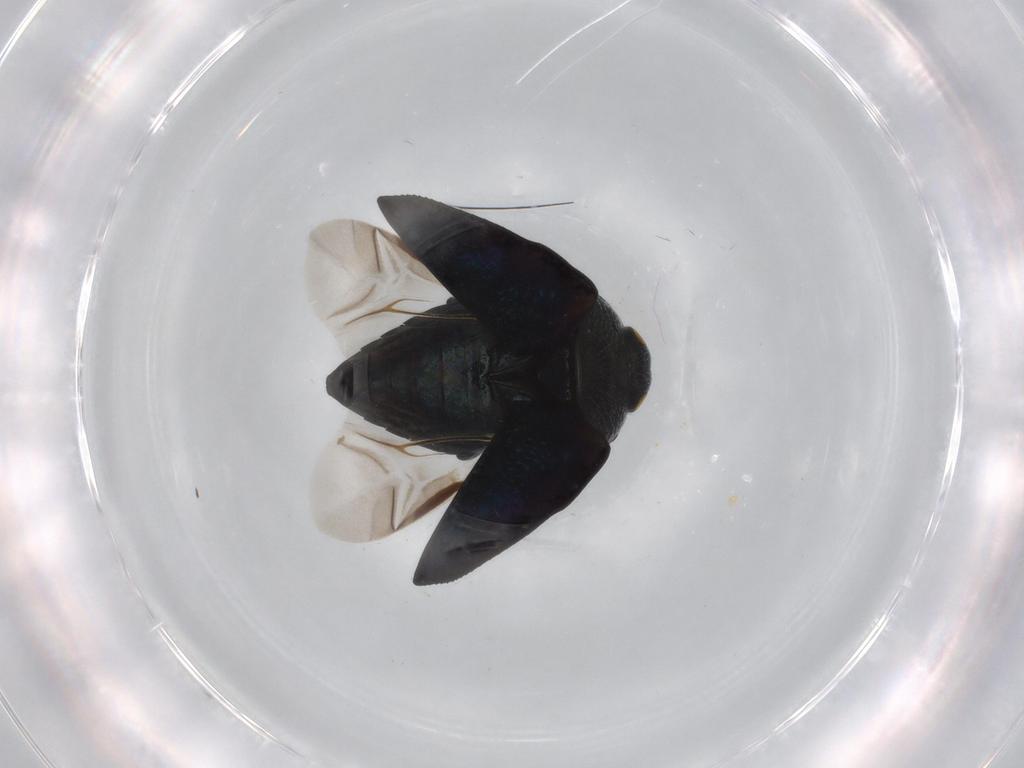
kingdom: Animalia
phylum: Arthropoda
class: Insecta
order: Coleoptera
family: Buprestidae
